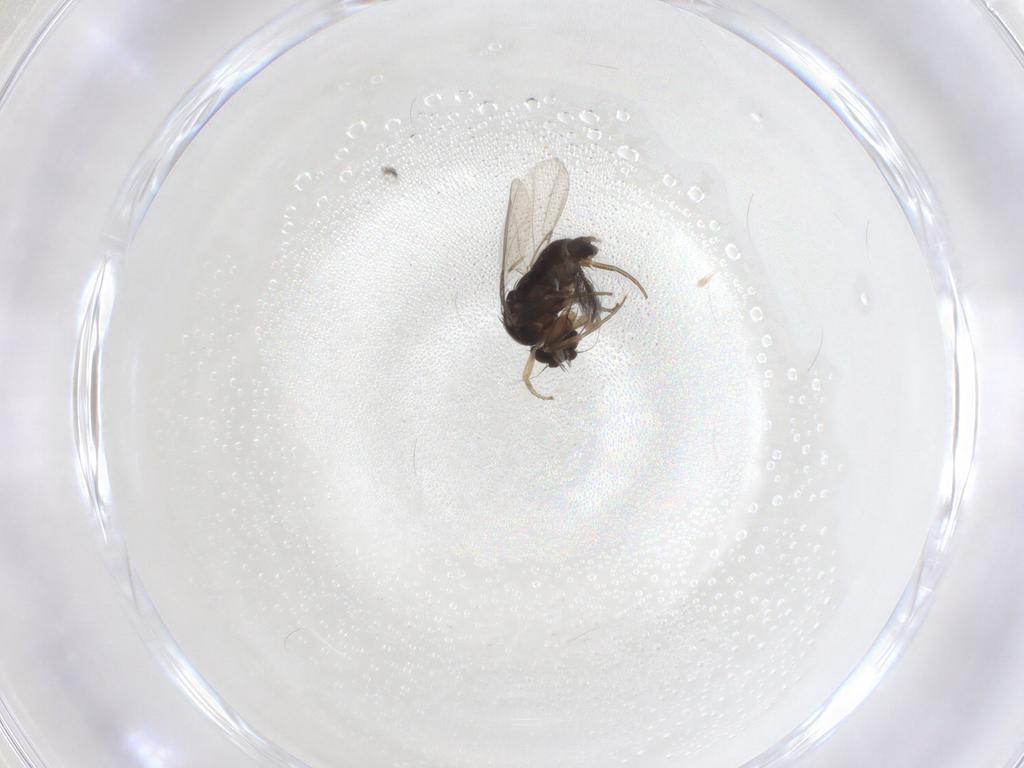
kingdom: Animalia
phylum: Arthropoda
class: Insecta
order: Diptera
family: Phoridae
